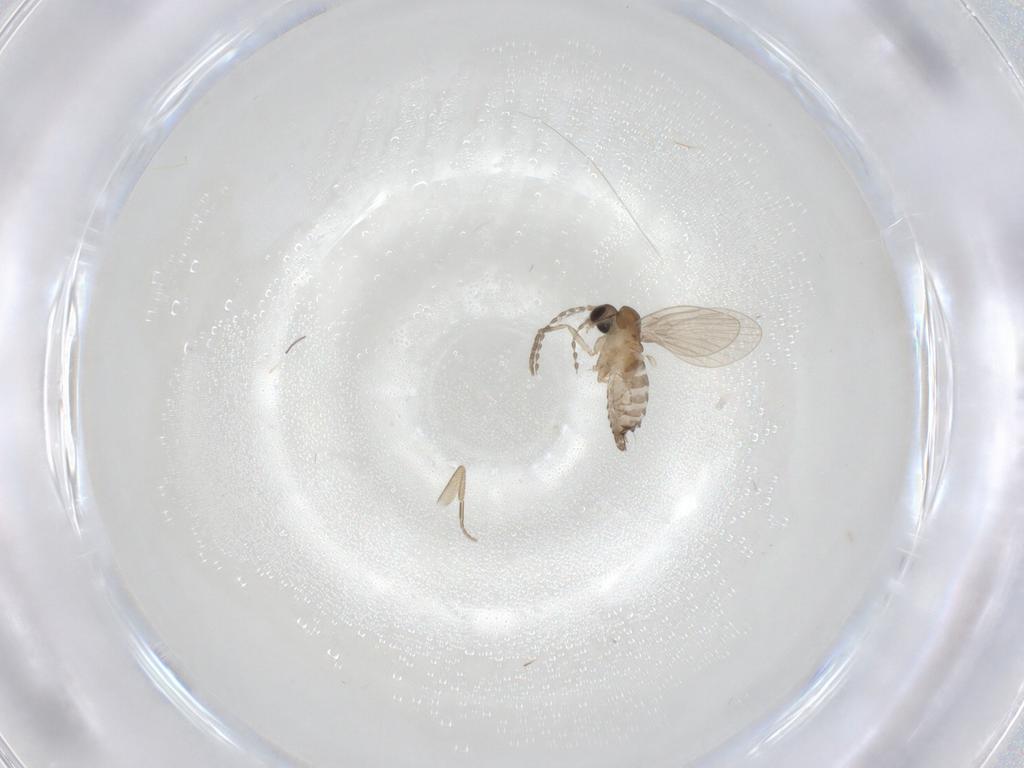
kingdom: Animalia
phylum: Arthropoda
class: Insecta
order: Diptera
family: Phoridae
